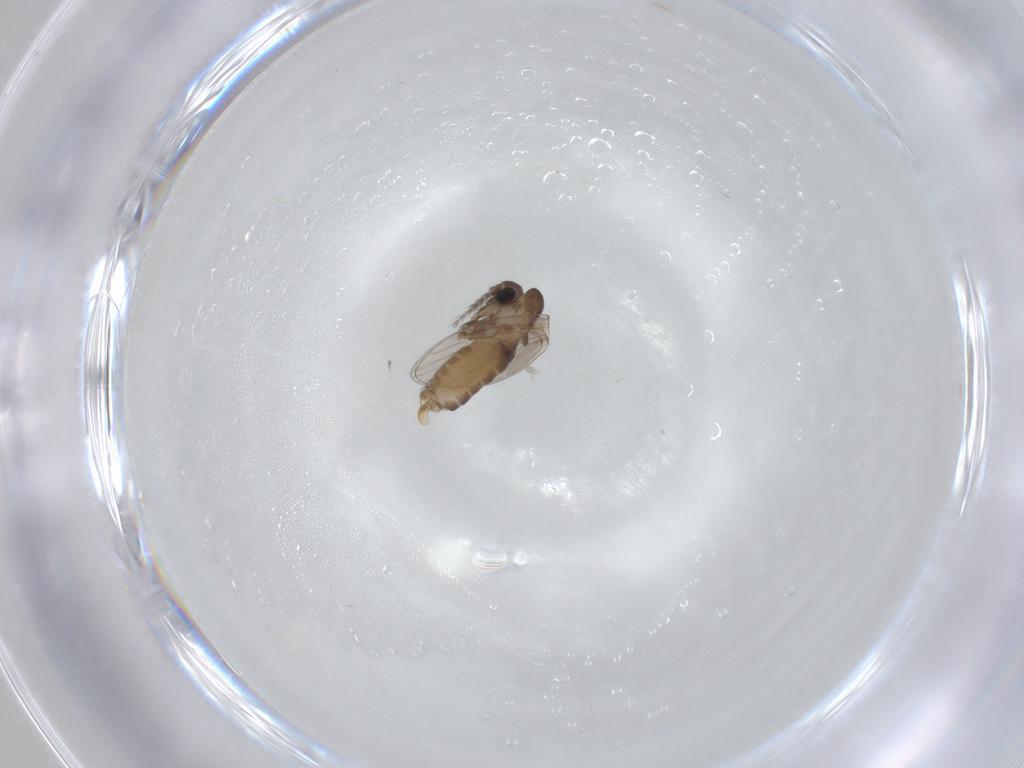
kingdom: Animalia
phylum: Arthropoda
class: Insecta
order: Diptera
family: Psychodidae
